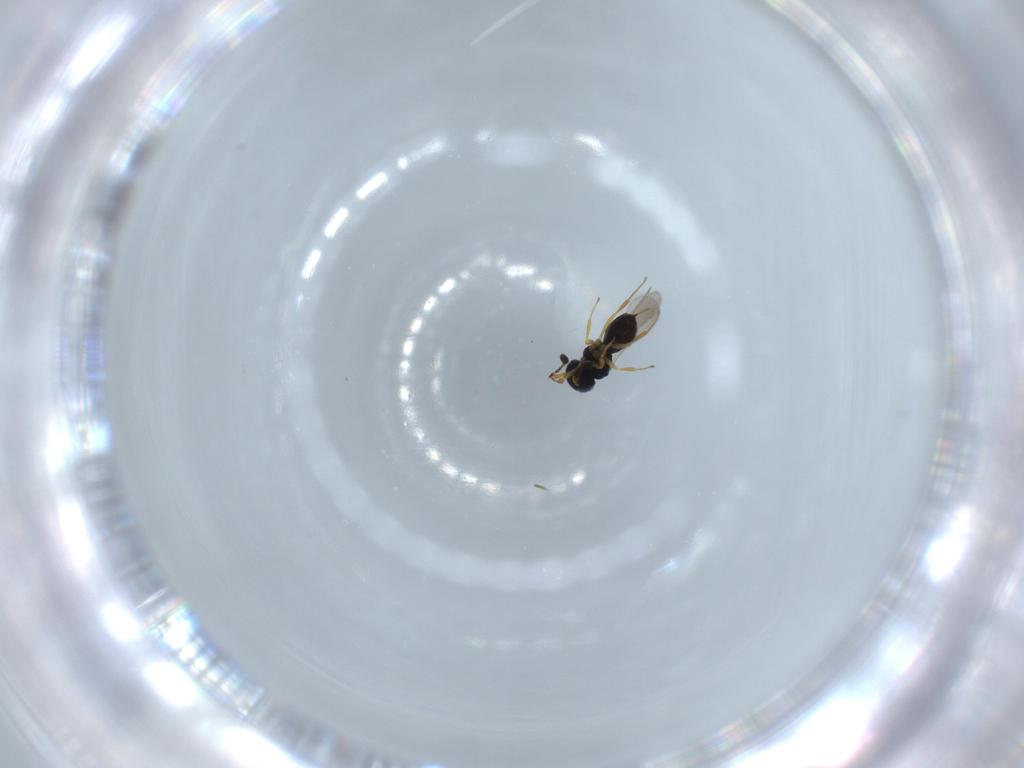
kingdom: Animalia
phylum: Arthropoda
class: Insecta
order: Hymenoptera
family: Scelionidae
